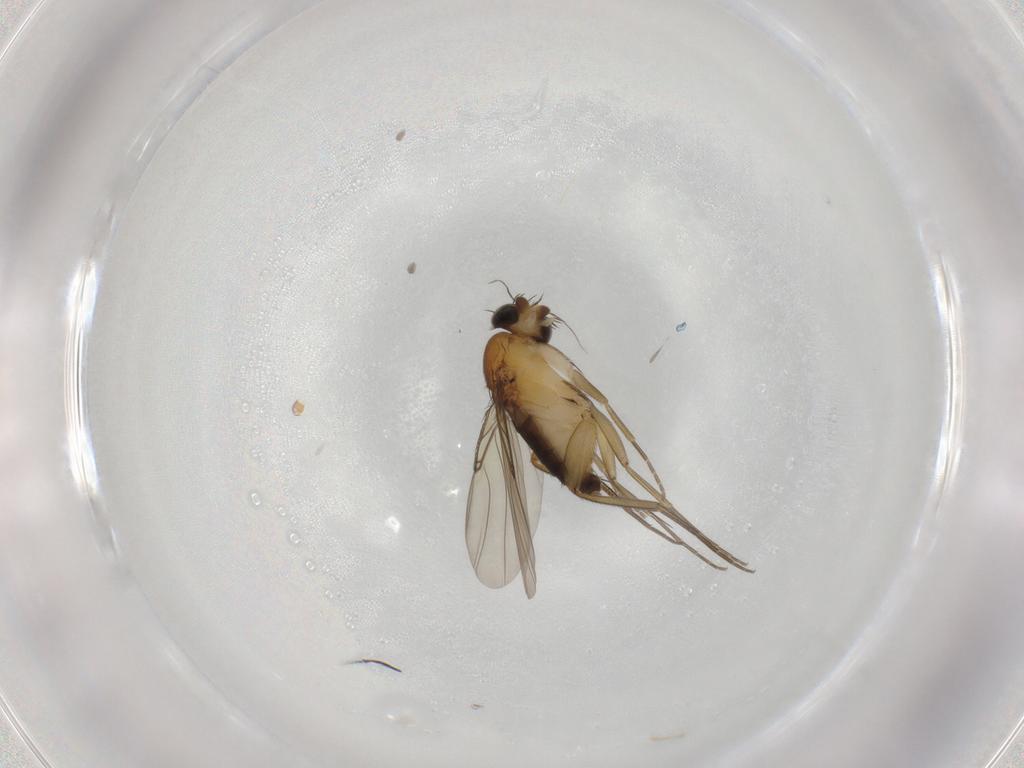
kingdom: Animalia
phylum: Arthropoda
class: Insecta
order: Diptera
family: Phoridae
